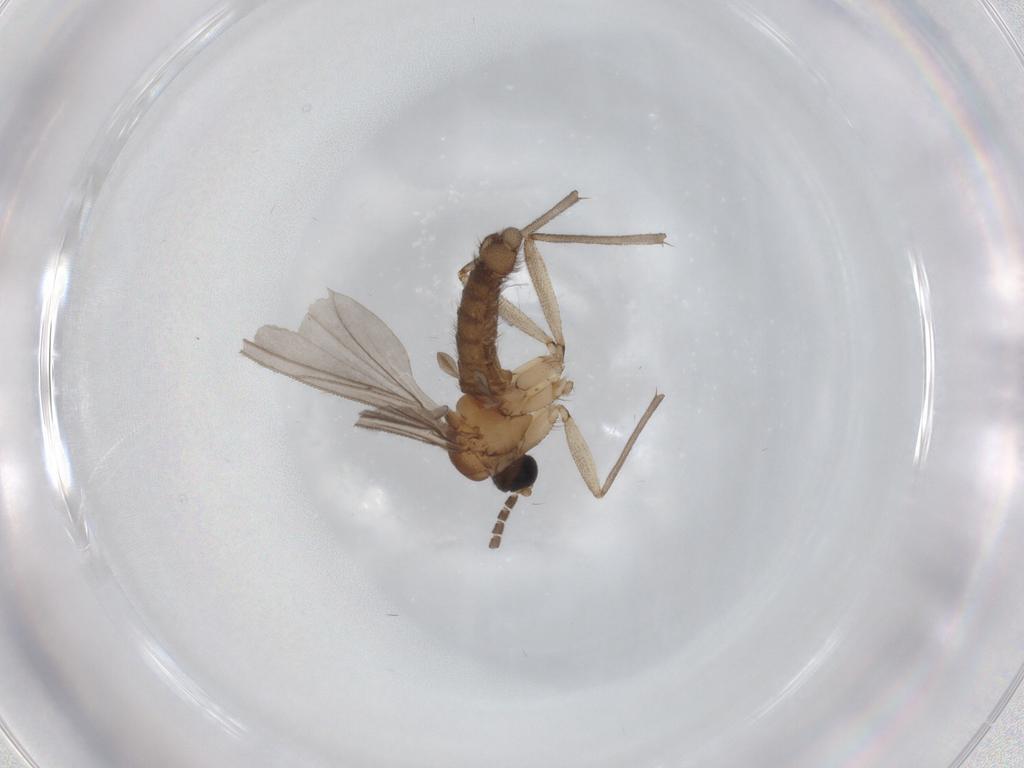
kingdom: Animalia
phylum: Arthropoda
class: Insecta
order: Diptera
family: Sciaridae
